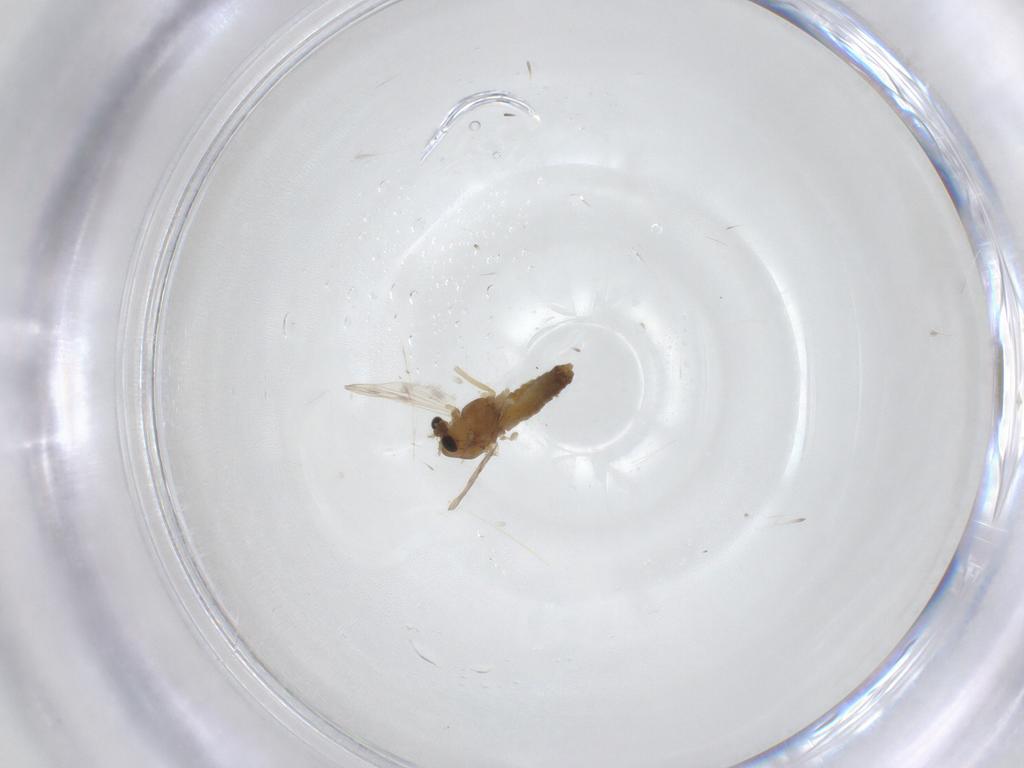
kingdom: Animalia
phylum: Arthropoda
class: Insecta
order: Diptera
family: Chironomidae
